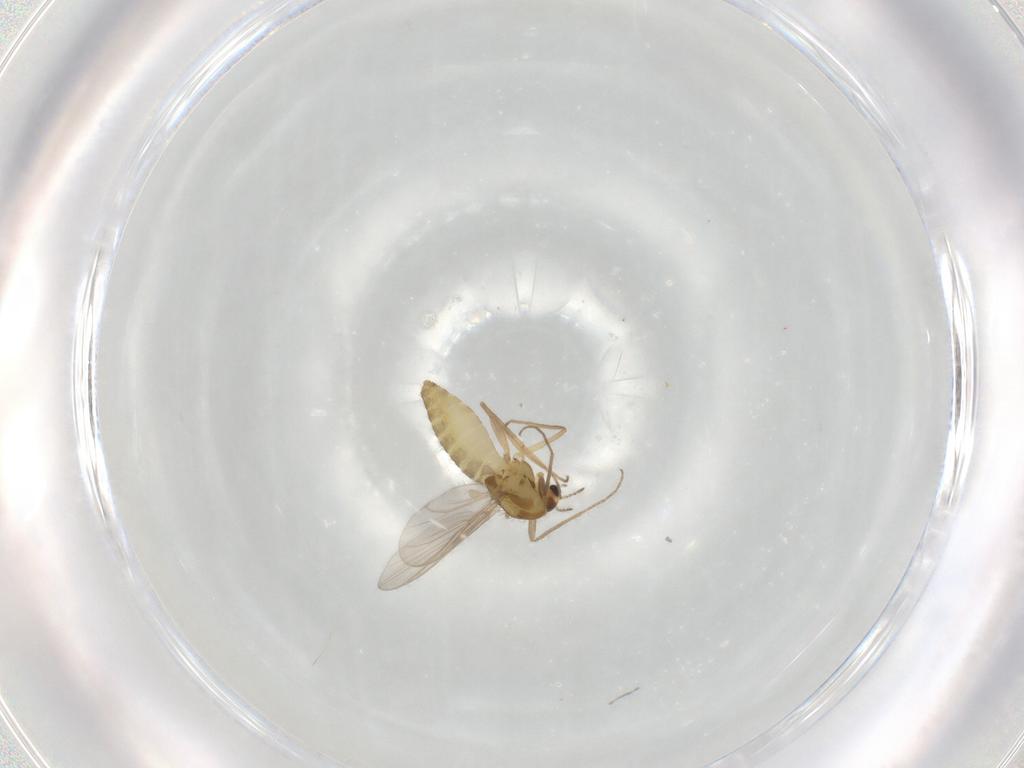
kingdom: Animalia
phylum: Arthropoda
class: Insecta
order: Diptera
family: Chironomidae
